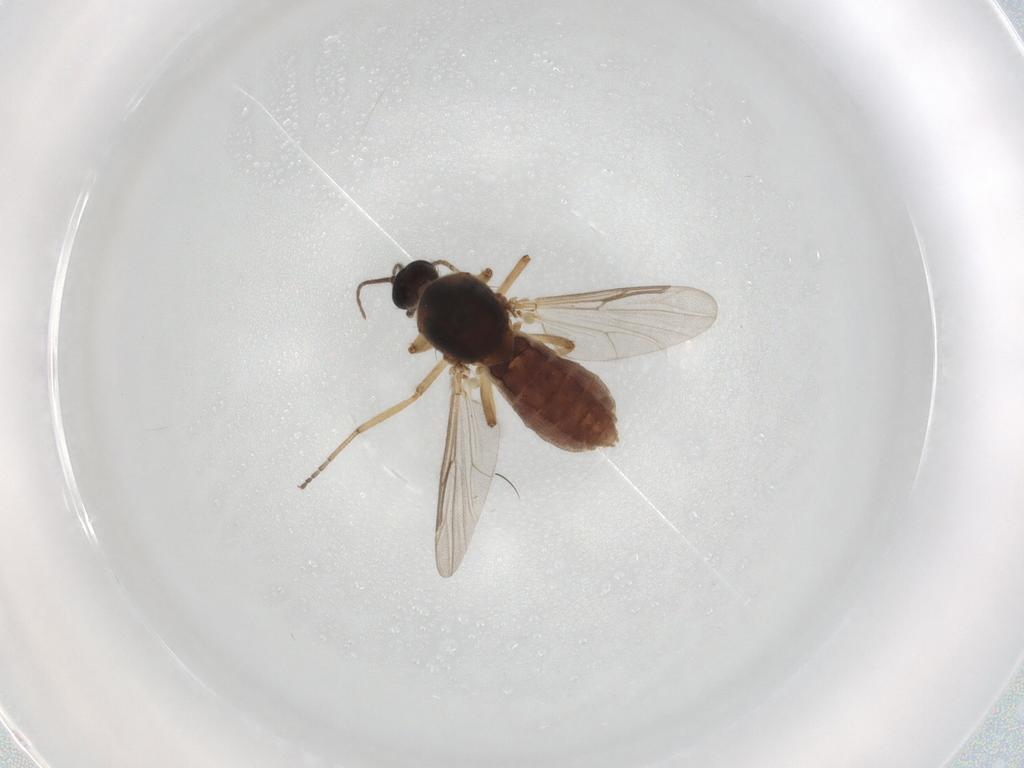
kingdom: Animalia
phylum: Arthropoda
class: Insecta
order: Diptera
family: Ceratopogonidae
